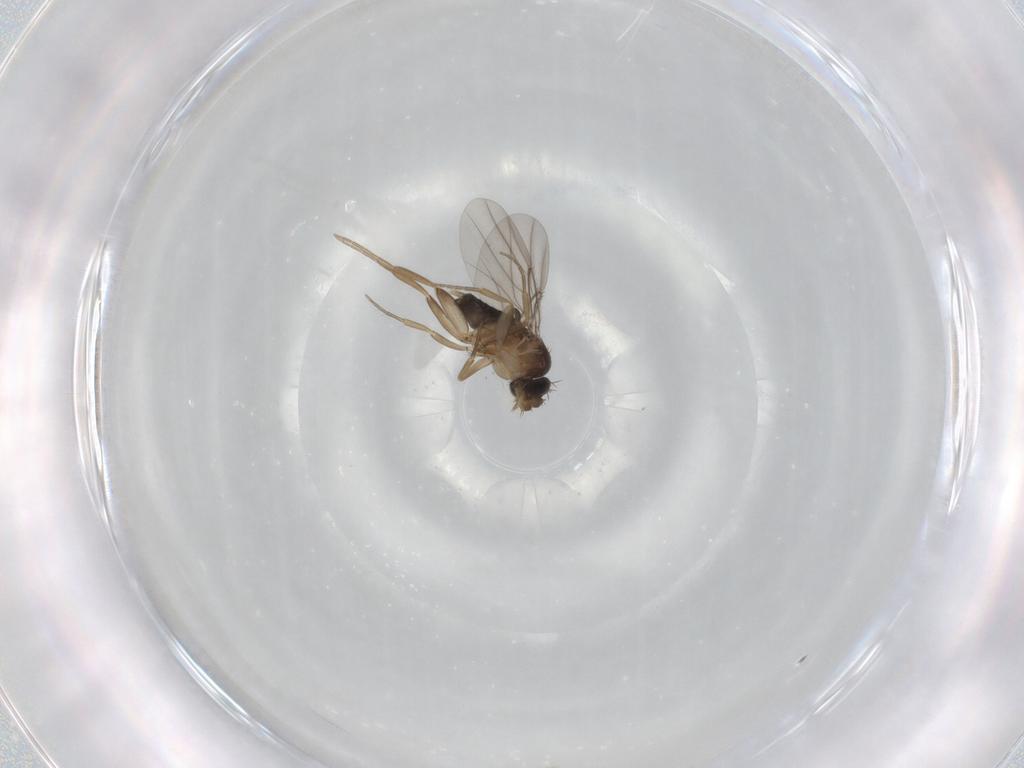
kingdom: Animalia
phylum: Arthropoda
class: Insecta
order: Diptera
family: Phoridae
